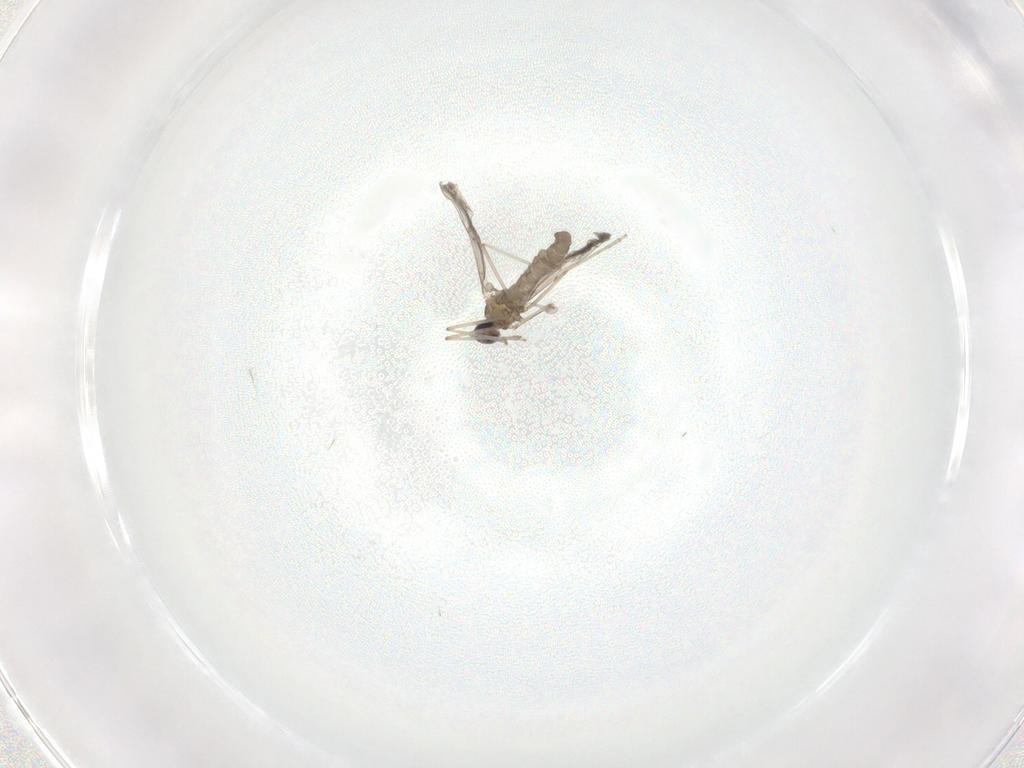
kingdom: Animalia
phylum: Arthropoda
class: Insecta
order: Diptera
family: Cecidomyiidae
